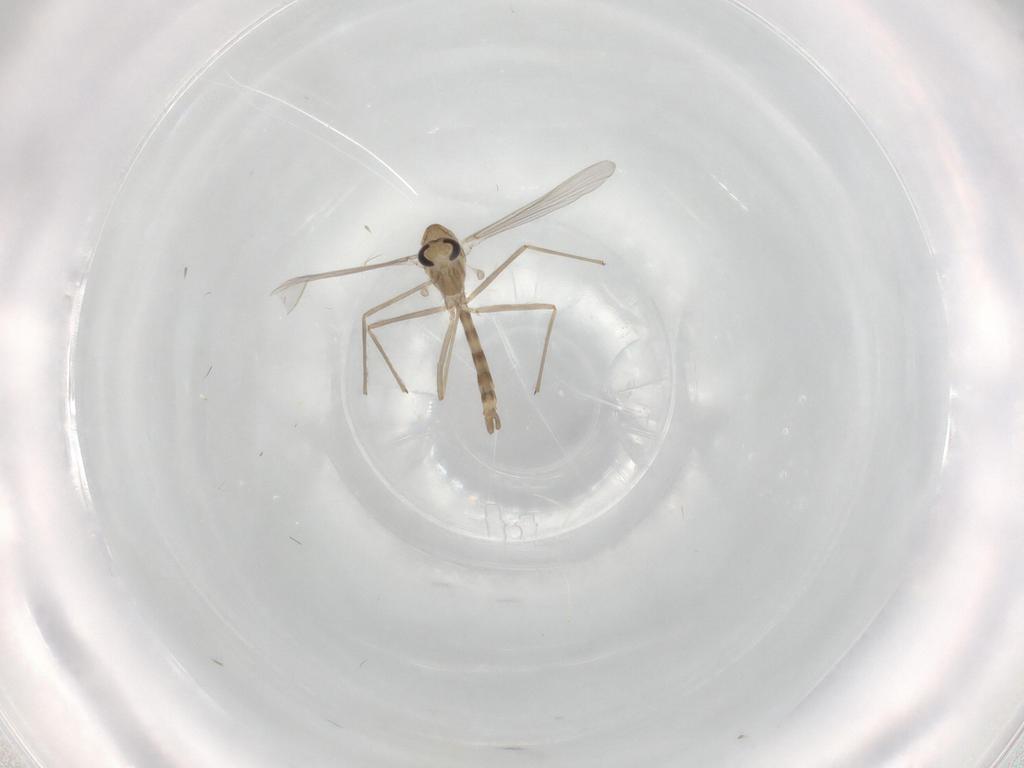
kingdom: Animalia
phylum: Arthropoda
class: Insecta
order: Diptera
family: Chironomidae
